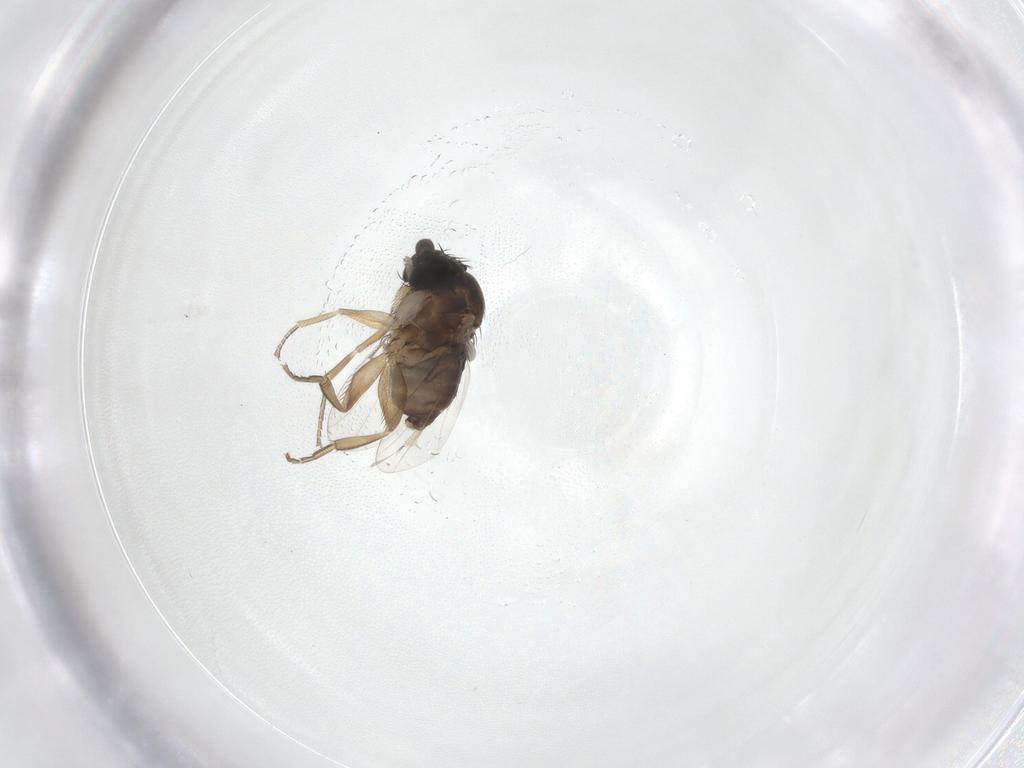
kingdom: Animalia
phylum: Arthropoda
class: Insecta
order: Diptera
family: Phoridae
